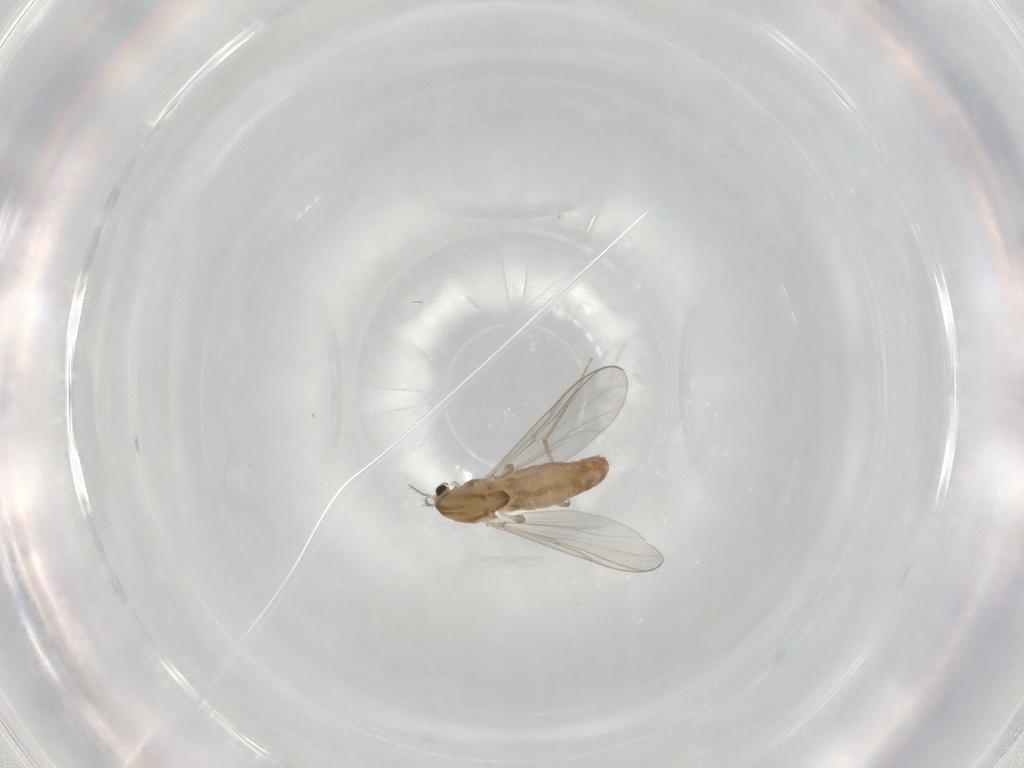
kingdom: Animalia
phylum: Arthropoda
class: Insecta
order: Diptera
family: Chironomidae
